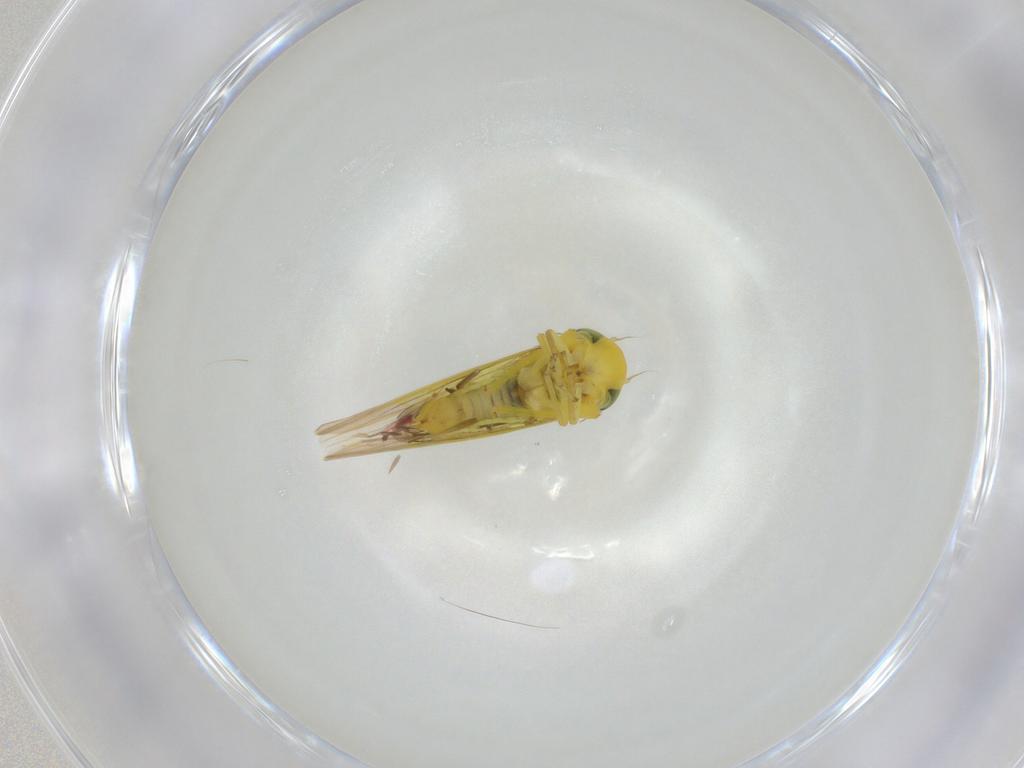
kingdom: Animalia
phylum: Arthropoda
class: Insecta
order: Hemiptera
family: Cicadellidae
